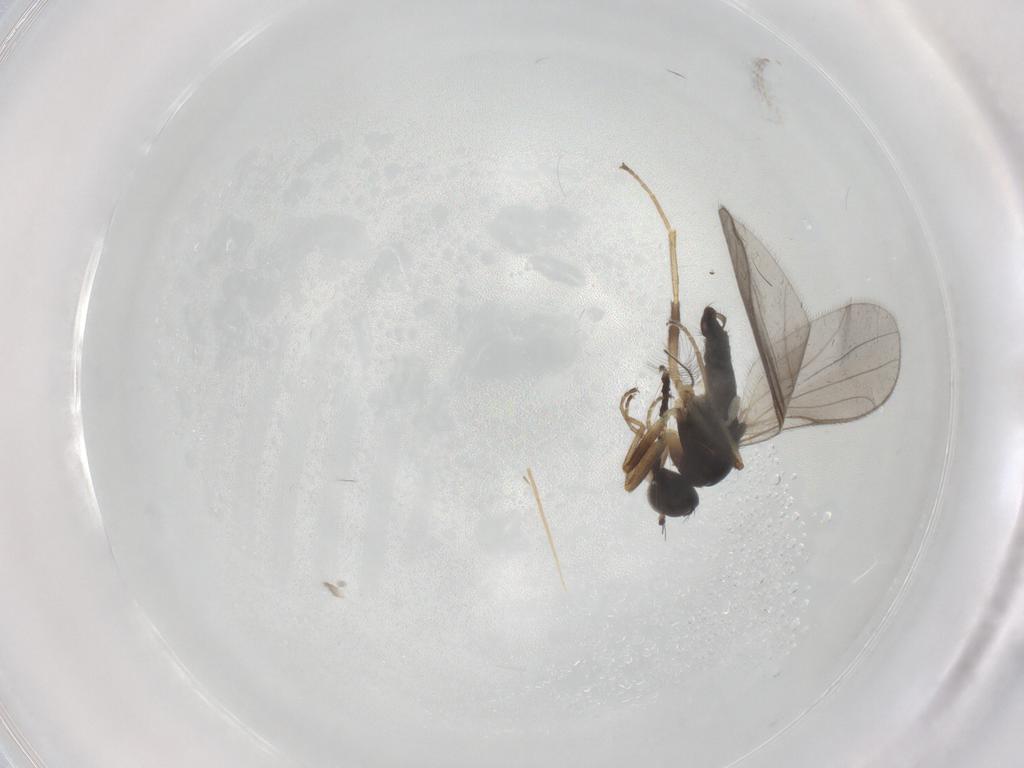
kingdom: Animalia
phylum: Arthropoda
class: Insecta
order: Diptera
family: Hybotidae
